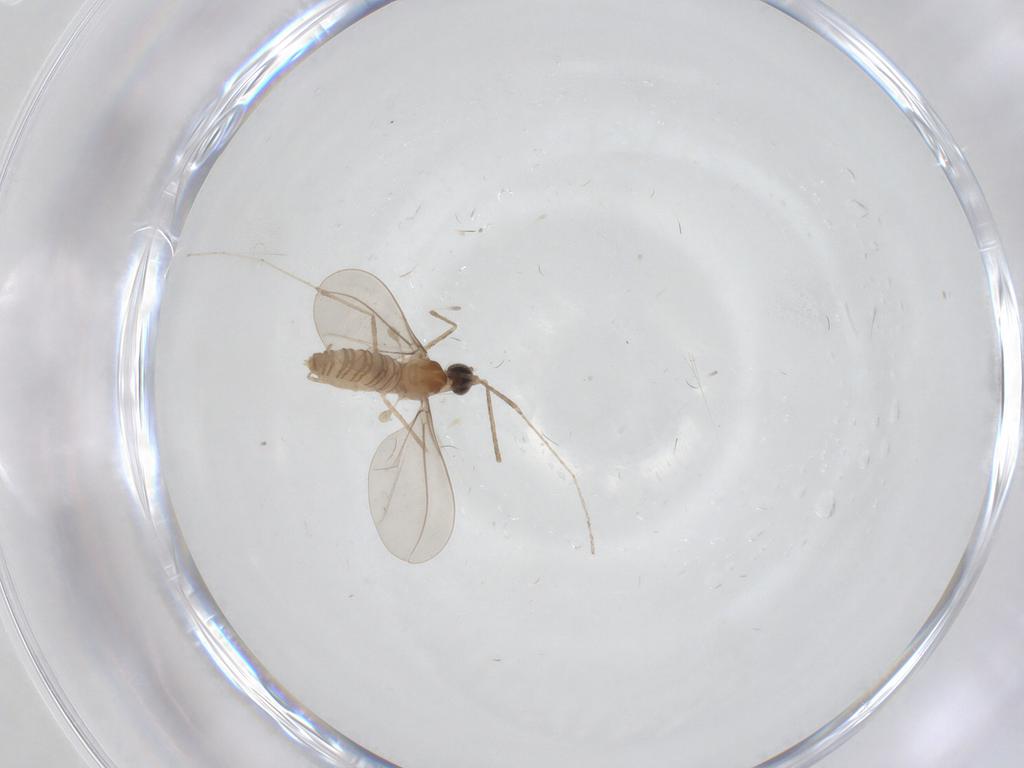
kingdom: Animalia
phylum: Arthropoda
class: Insecta
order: Diptera
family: Cecidomyiidae
